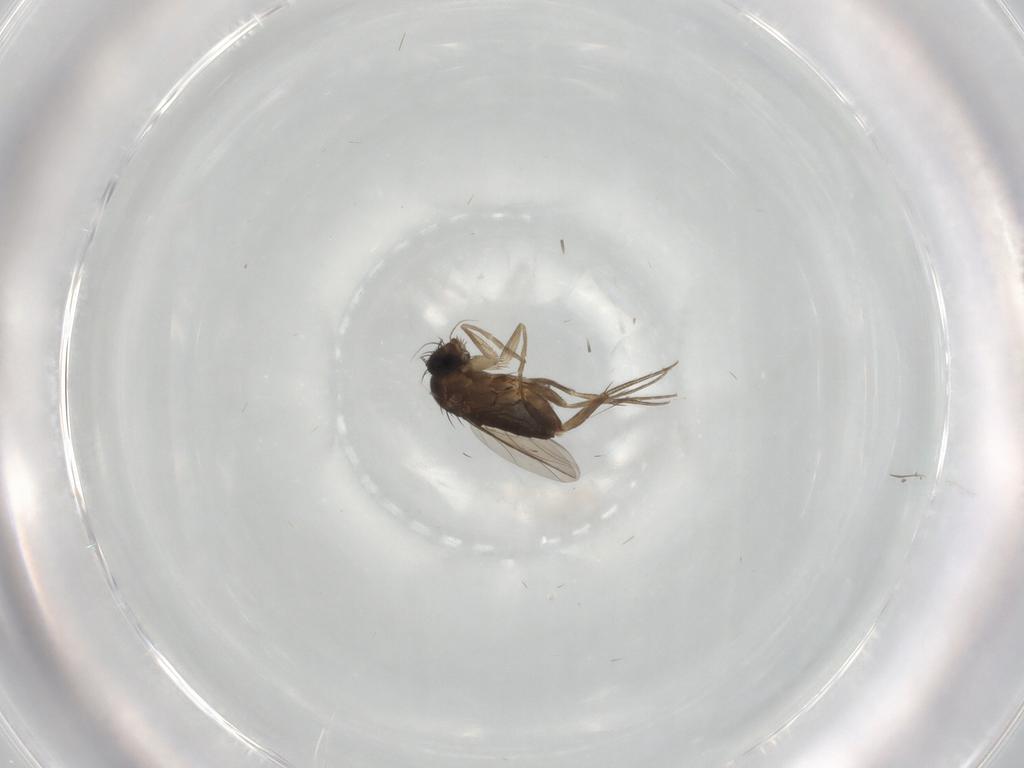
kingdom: Animalia
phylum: Arthropoda
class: Insecta
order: Diptera
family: Phoridae
